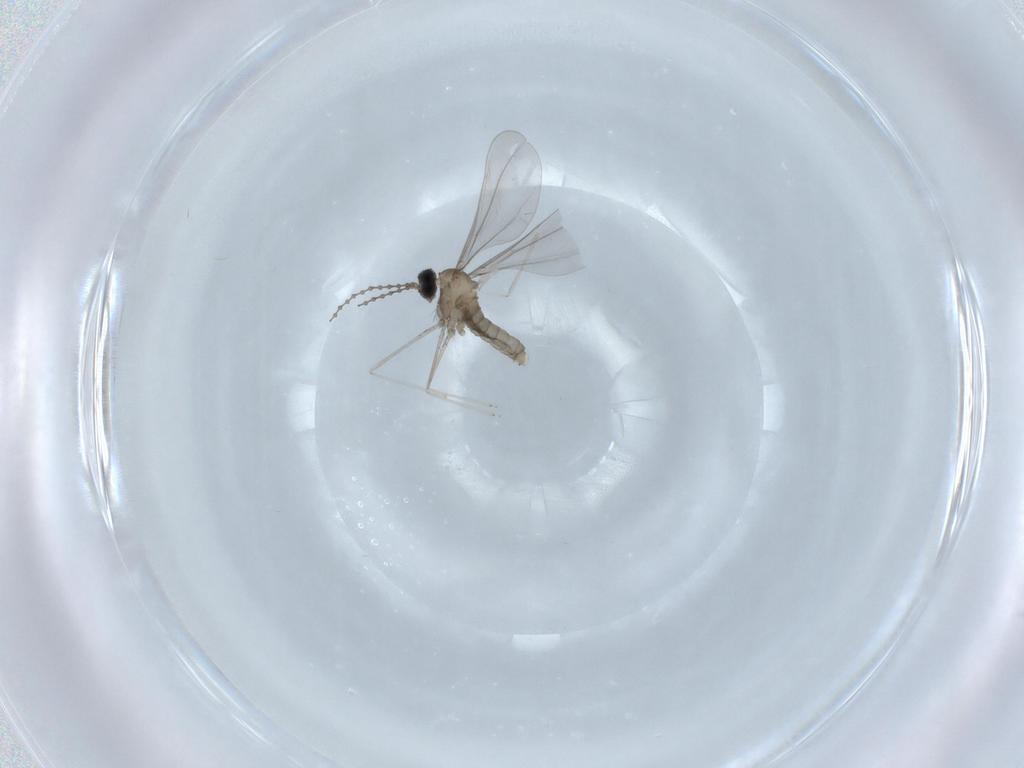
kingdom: Animalia
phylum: Arthropoda
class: Insecta
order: Diptera
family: Cecidomyiidae
